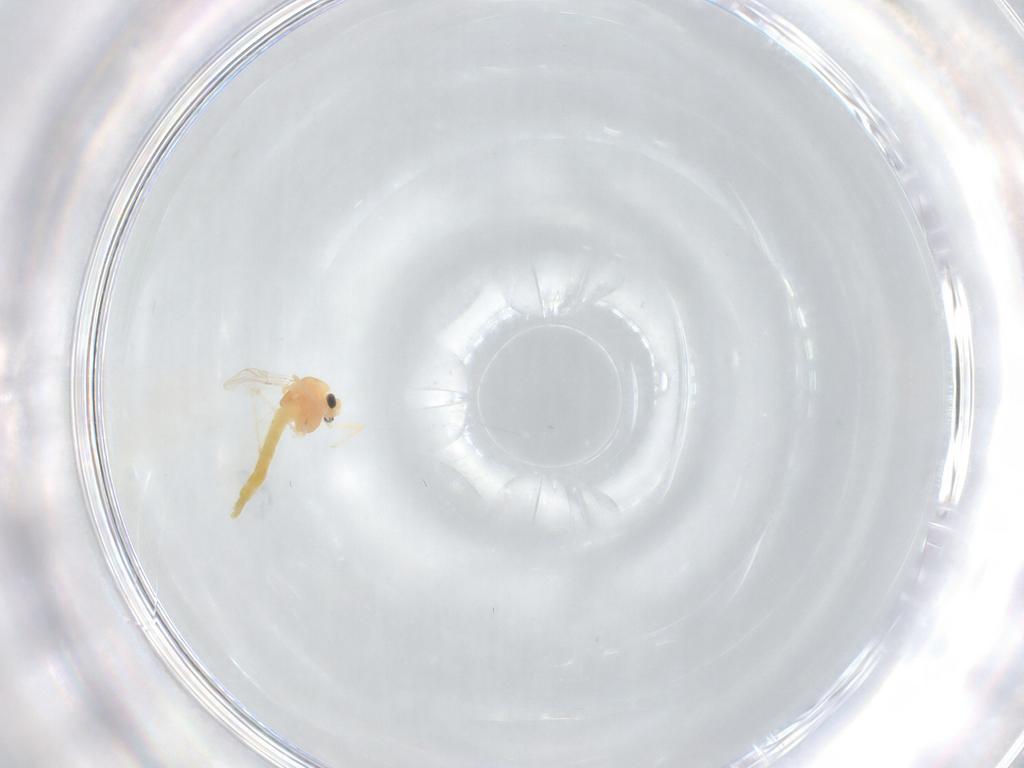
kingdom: Animalia
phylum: Arthropoda
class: Insecta
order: Diptera
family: Chironomidae
